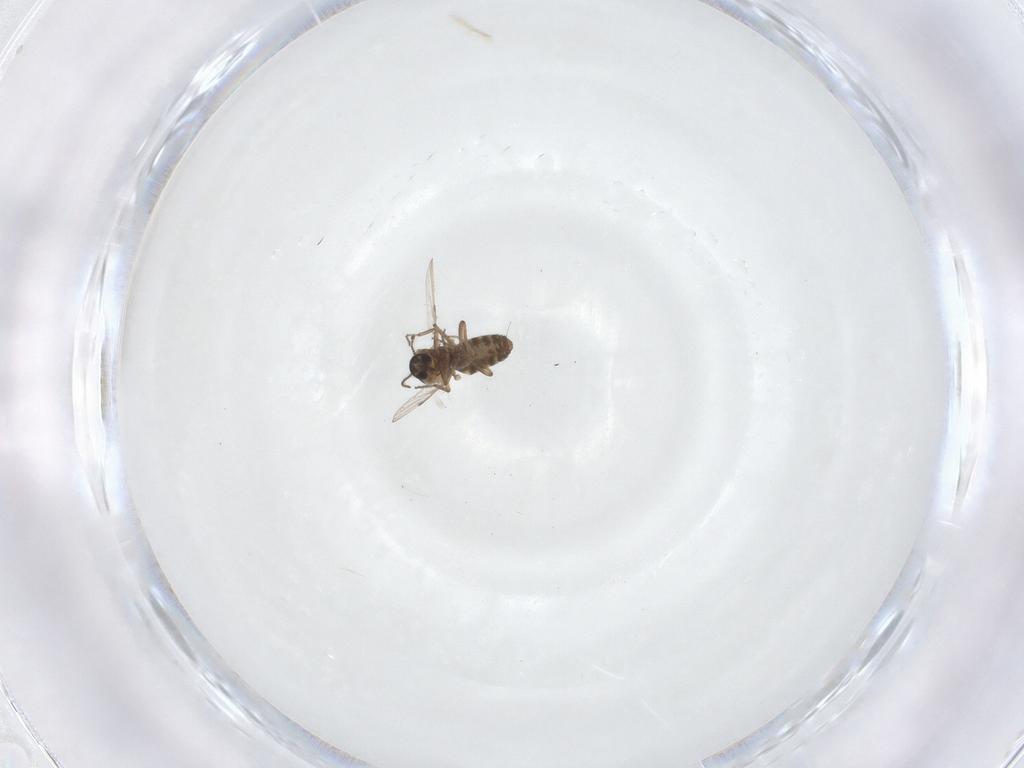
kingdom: Animalia
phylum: Arthropoda
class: Insecta
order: Diptera
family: Ceratopogonidae
